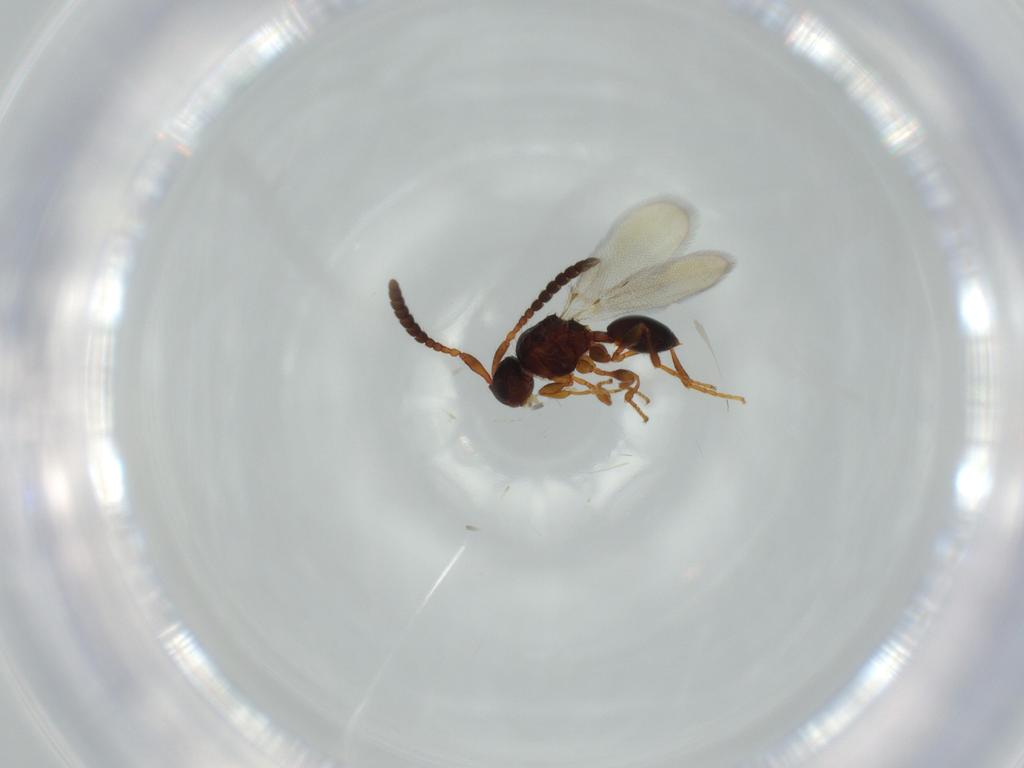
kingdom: Animalia
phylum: Arthropoda
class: Insecta
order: Hymenoptera
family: Diapriidae
